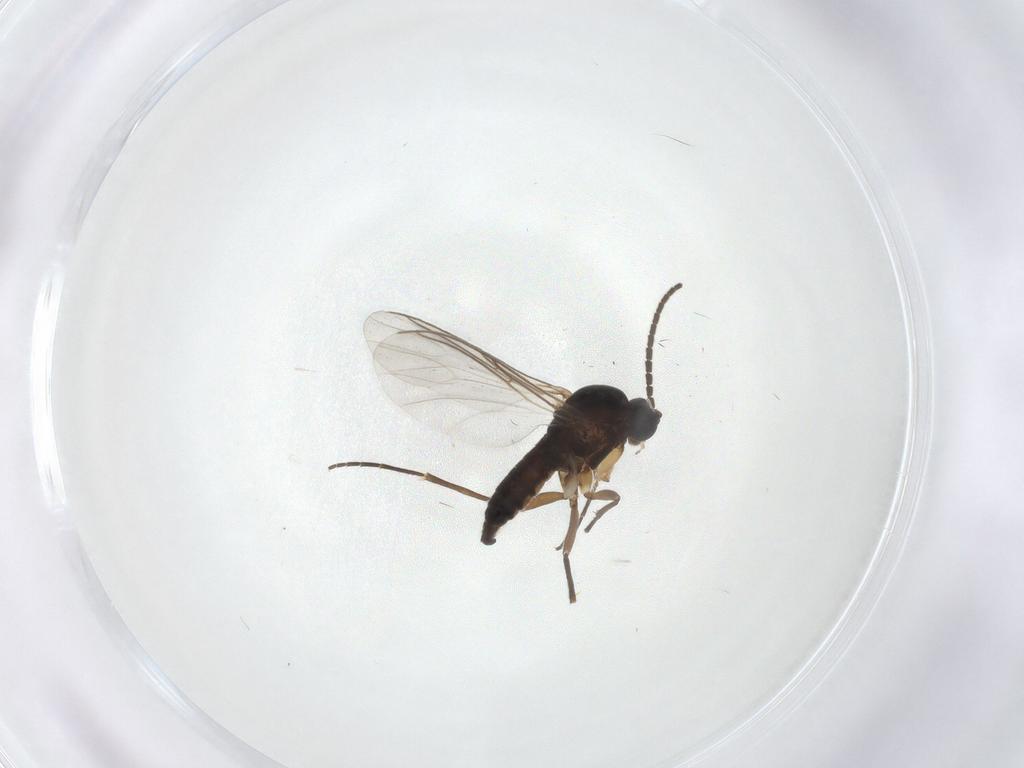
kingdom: Animalia
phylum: Arthropoda
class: Insecta
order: Diptera
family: Sciaridae
